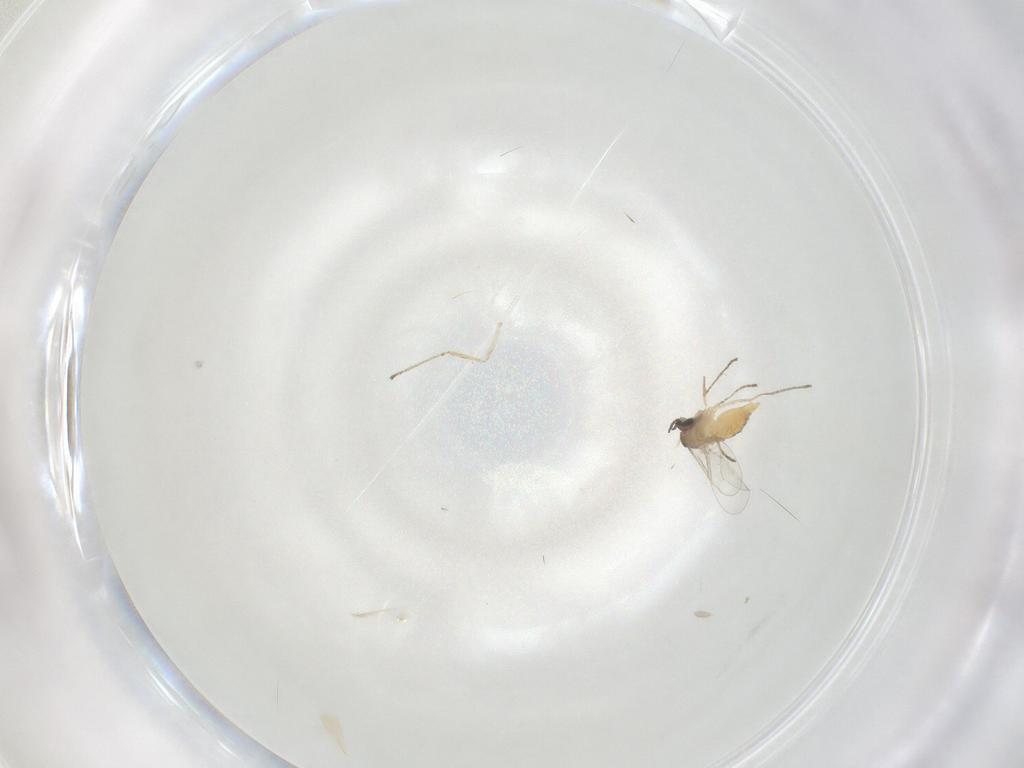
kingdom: Animalia
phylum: Arthropoda
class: Insecta
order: Diptera
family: Cecidomyiidae
